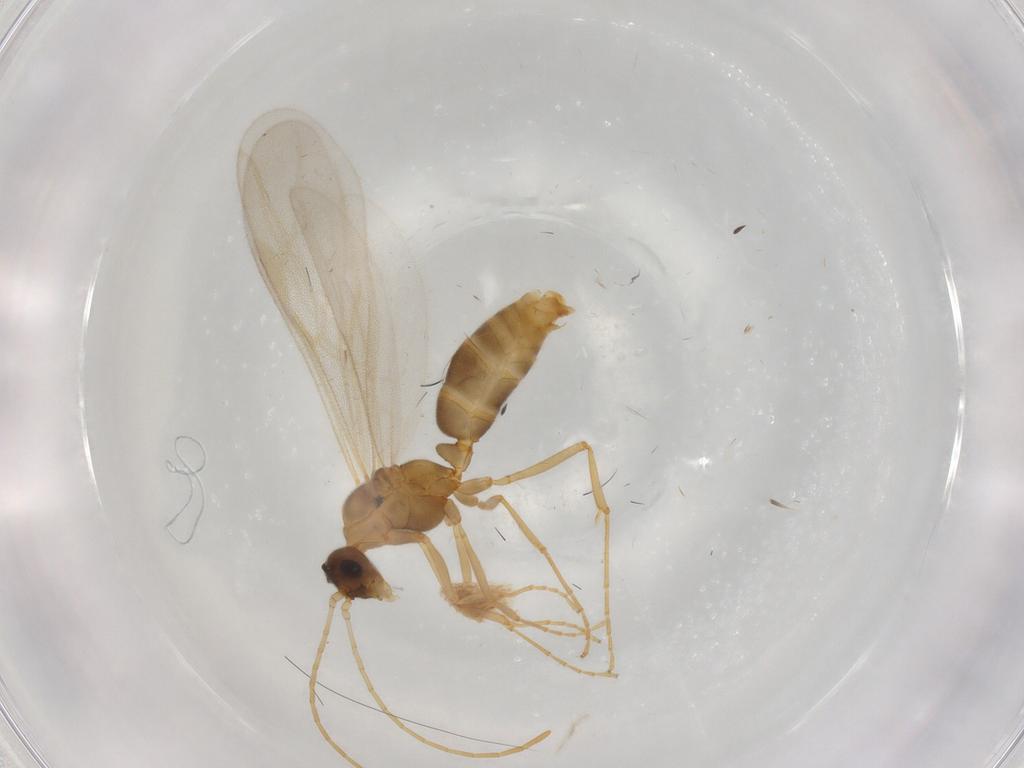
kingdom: Animalia
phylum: Arthropoda
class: Insecta
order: Hymenoptera
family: Formicidae
